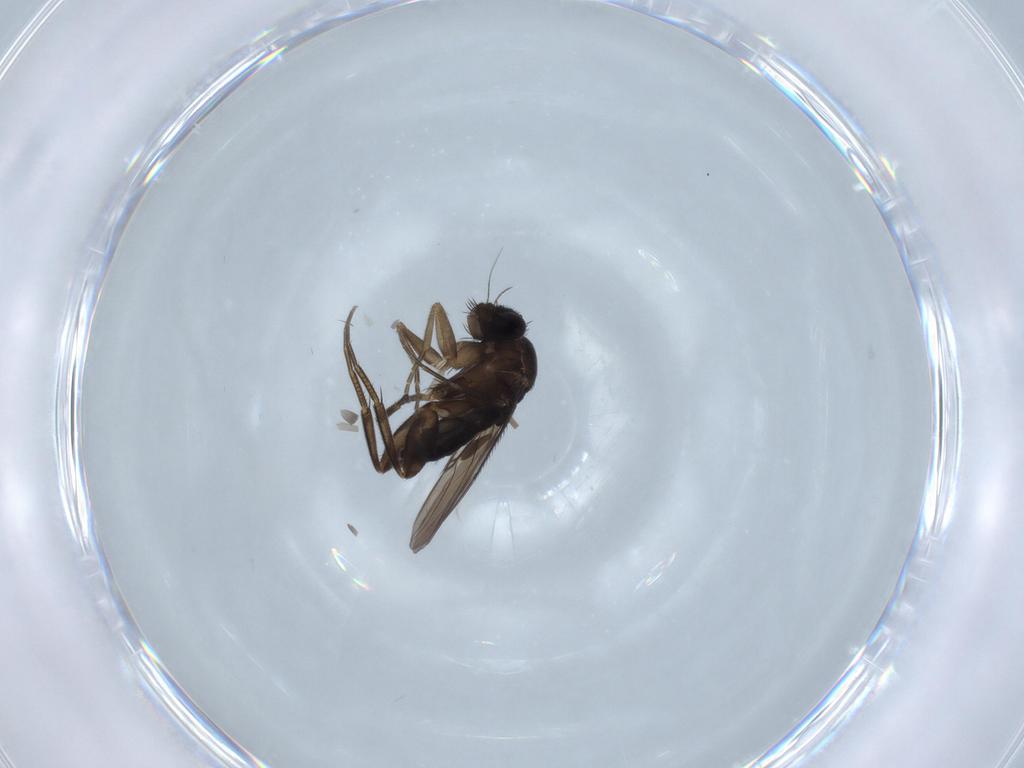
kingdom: Animalia
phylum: Arthropoda
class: Insecta
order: Diptera
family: Phoridae
